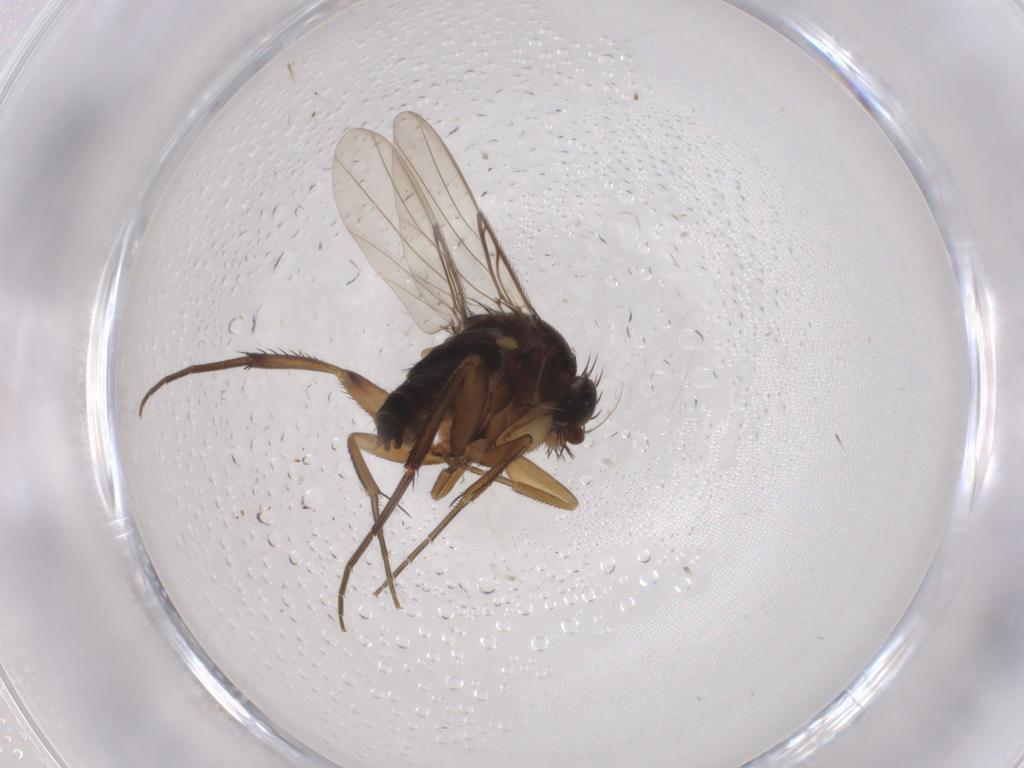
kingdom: Animalia
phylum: Arthropoda
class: Insecta
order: Diptera
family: Phoridae
